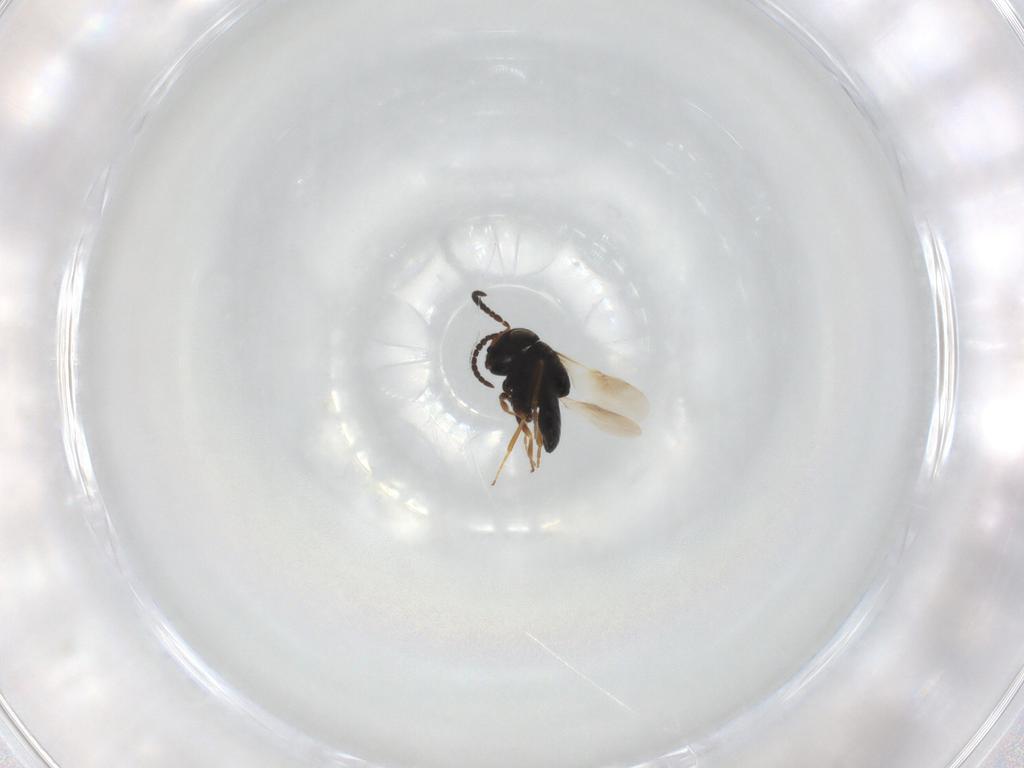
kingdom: Animalia
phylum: Arthropoda
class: Insecta
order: Hymenoptera
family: Scelionidae
